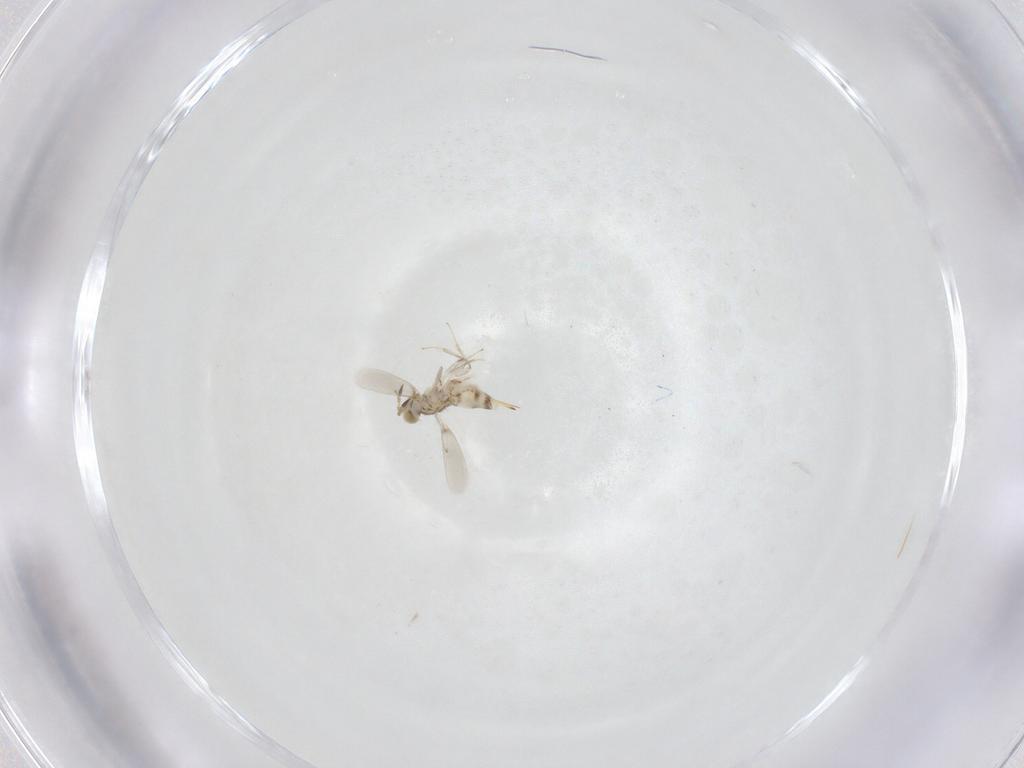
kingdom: Animalia
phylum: Arthropoda
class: Insecta
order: Hymenoptera
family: Aphelinidae
